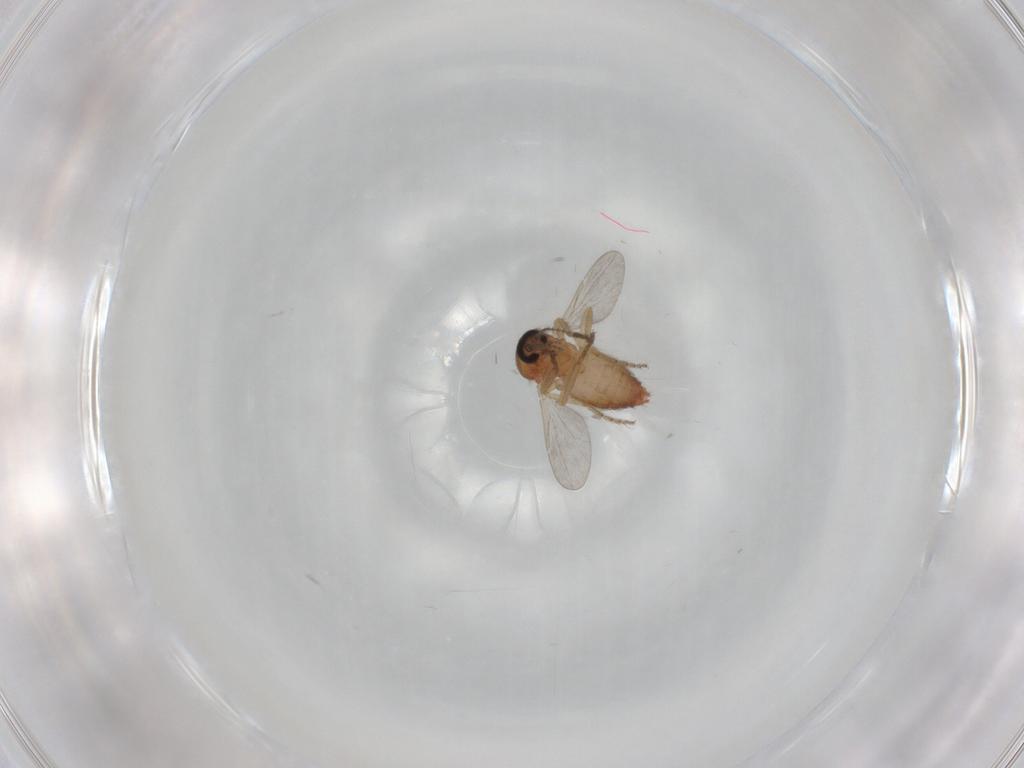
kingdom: Animalia
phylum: Arthropoda
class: Insecta
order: Diptera
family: Ceratopogonidae
